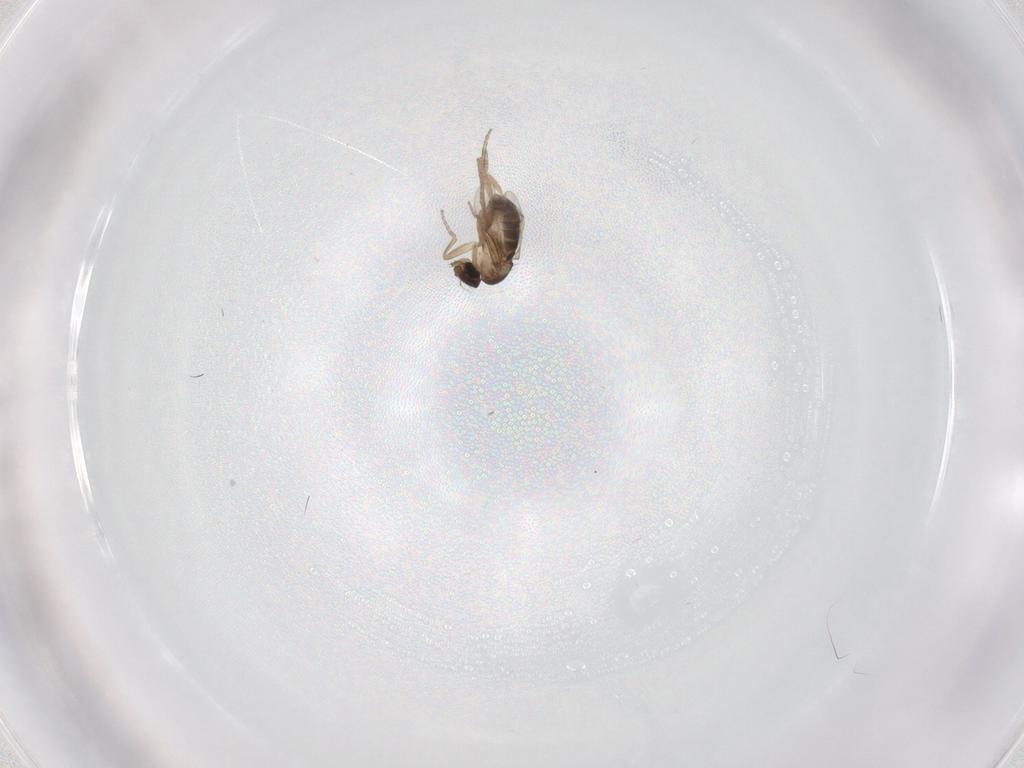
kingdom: Animalia
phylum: Arthropoda
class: Insecta
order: Diptera
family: Phoridae
